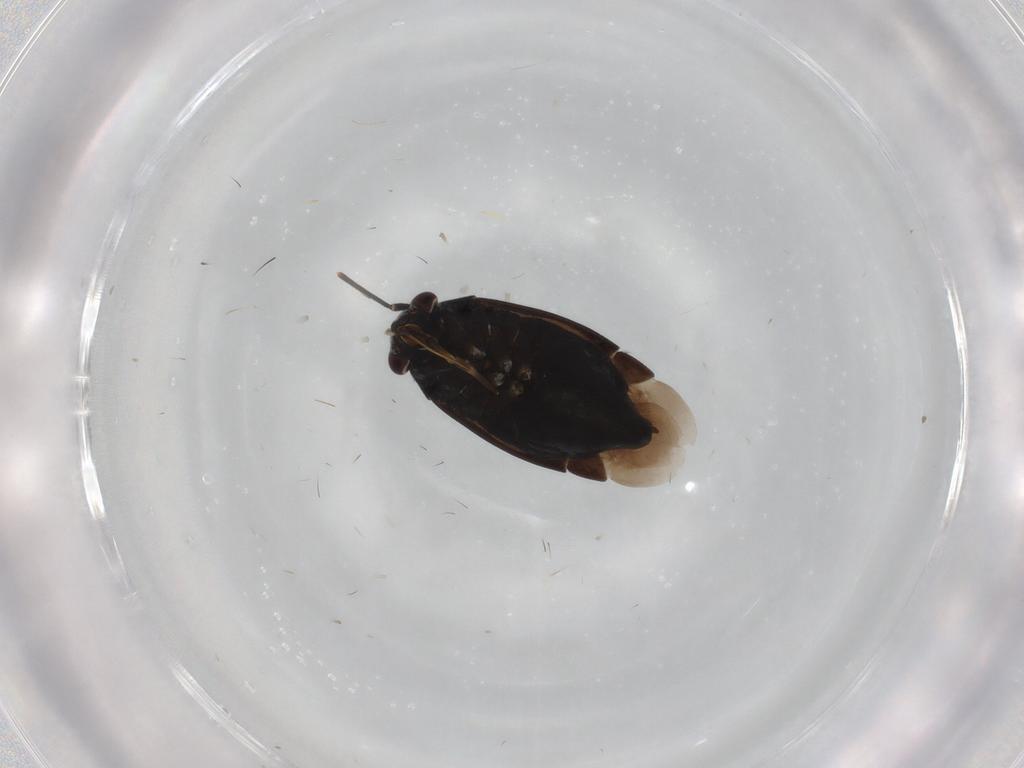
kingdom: Animalia
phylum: Arthropoda
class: Insecta
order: Hemiptera
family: Miridae
